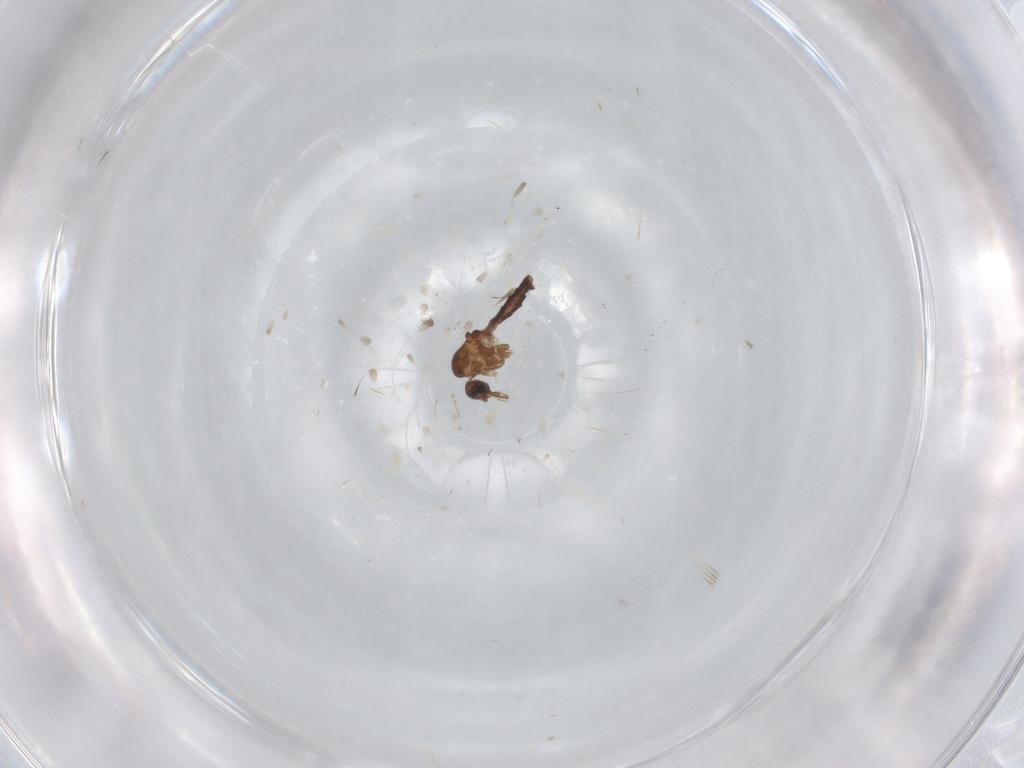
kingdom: Animalia
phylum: Arthropoda
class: Insecta
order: Diptera
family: Ceratopogonidae
